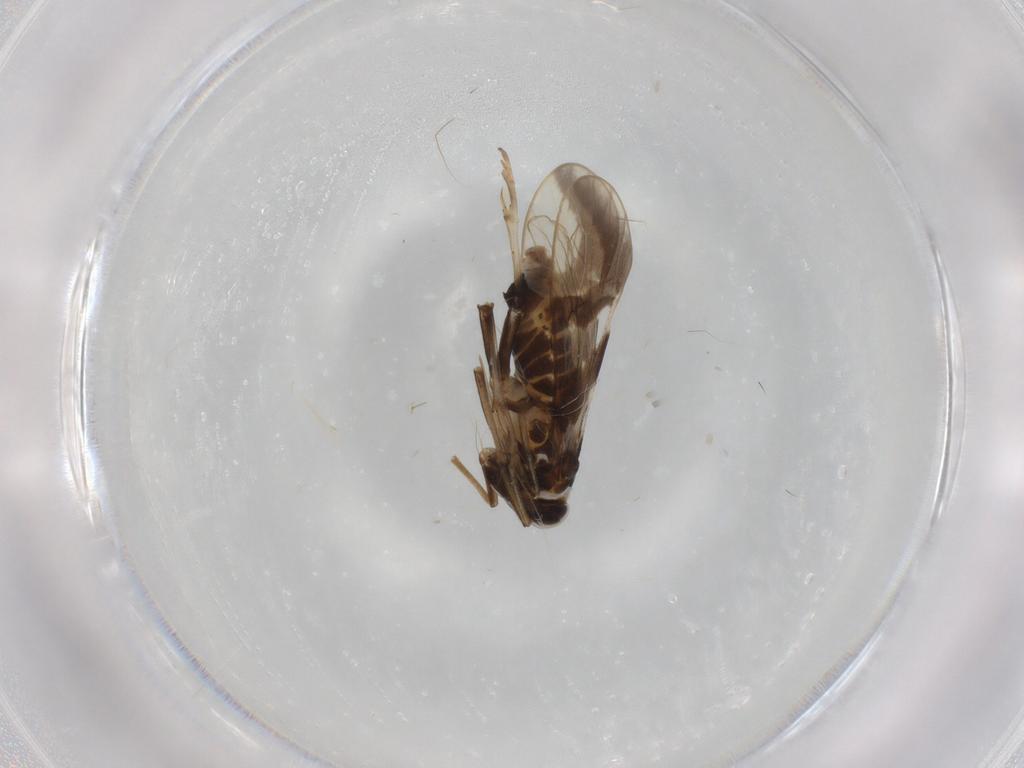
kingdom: Animalia
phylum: Arthropoda
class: Insecta
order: Hemiptera
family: Delphacidae
